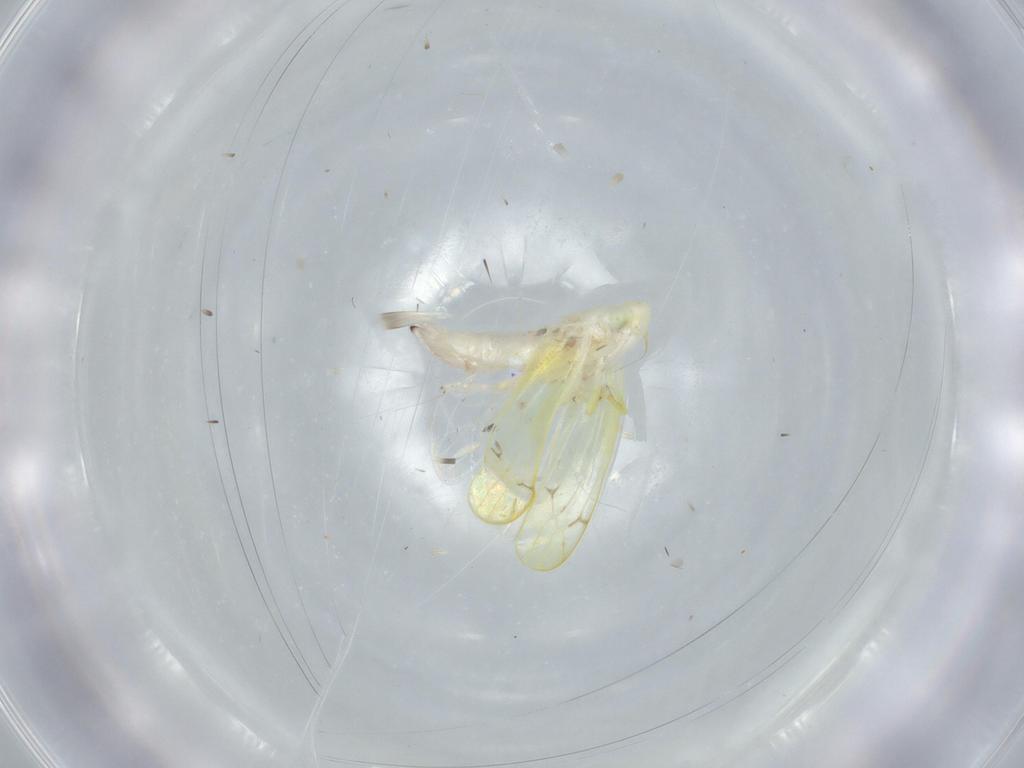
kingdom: Animalia
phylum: Arthropoda
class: Insecta
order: Hemiptera
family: Cicadellidae
